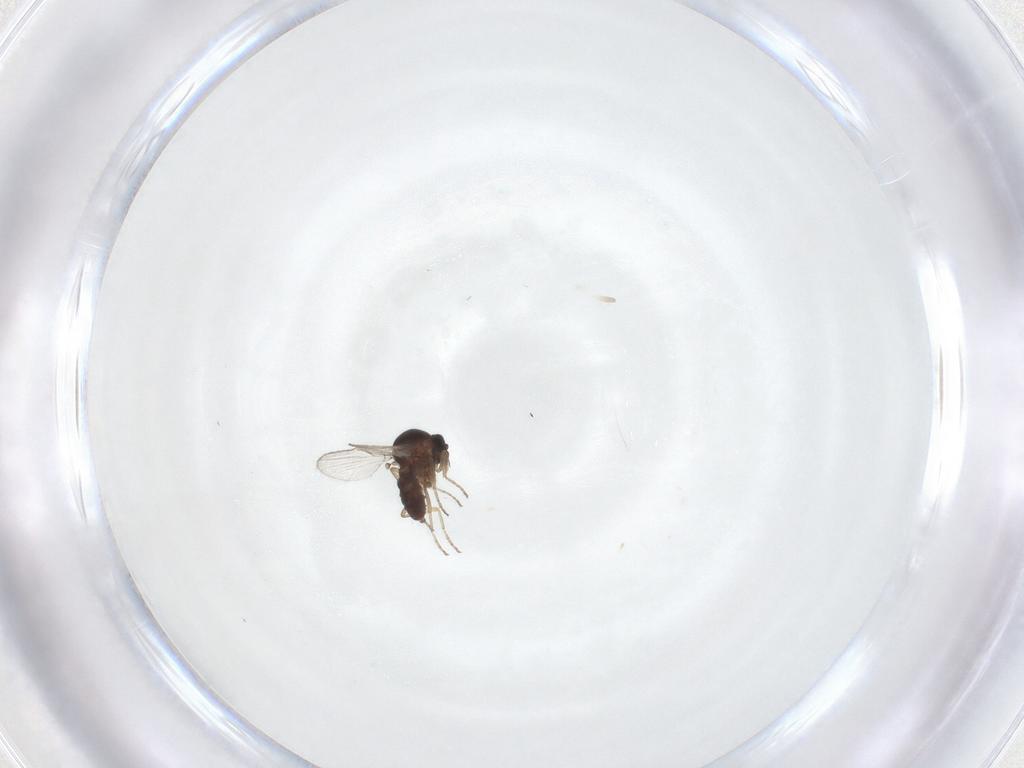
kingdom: Animalia
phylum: Arthropoda
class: Insecta
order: Diptera
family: Ceratopogonidae
